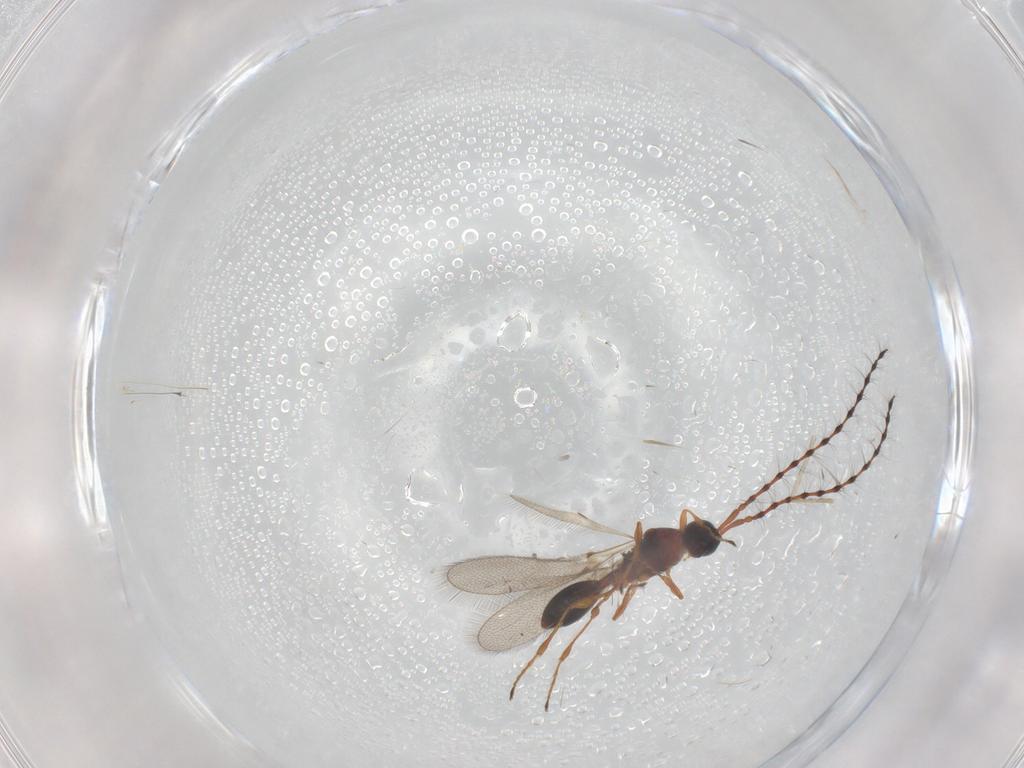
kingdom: Animalia
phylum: Arthropoda
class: Insecta
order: Hymenoptera
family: Diapriidae
